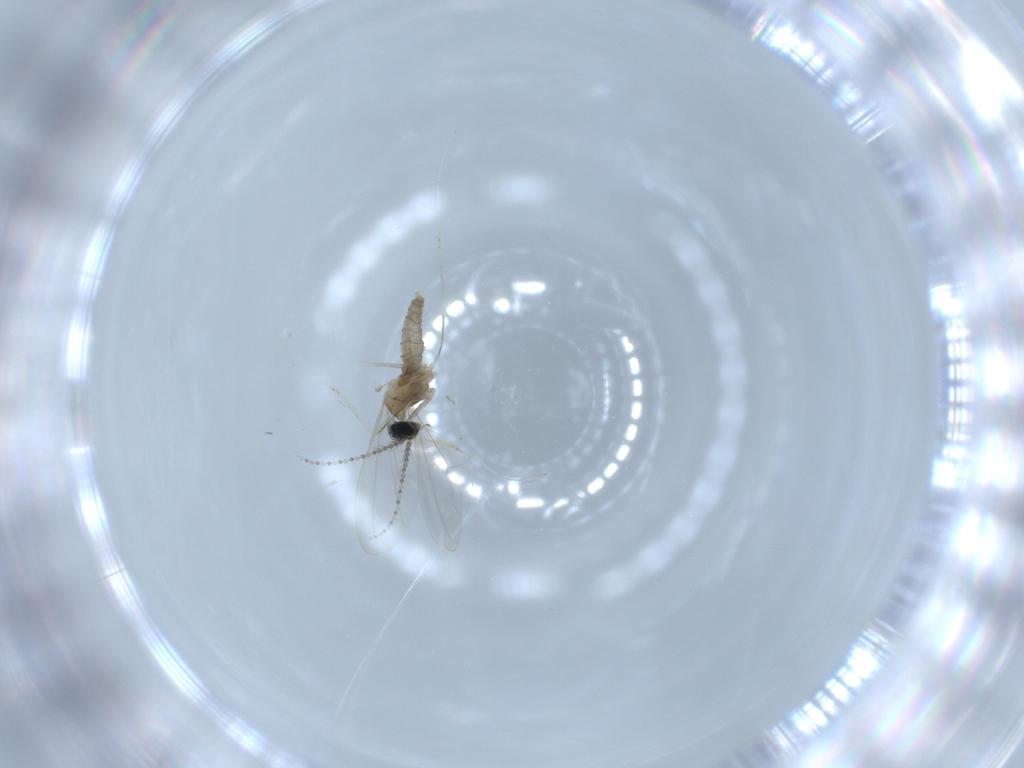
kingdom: Animalia
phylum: Arthropoda
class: Insecta
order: Diptera
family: Cecidomyiidae
